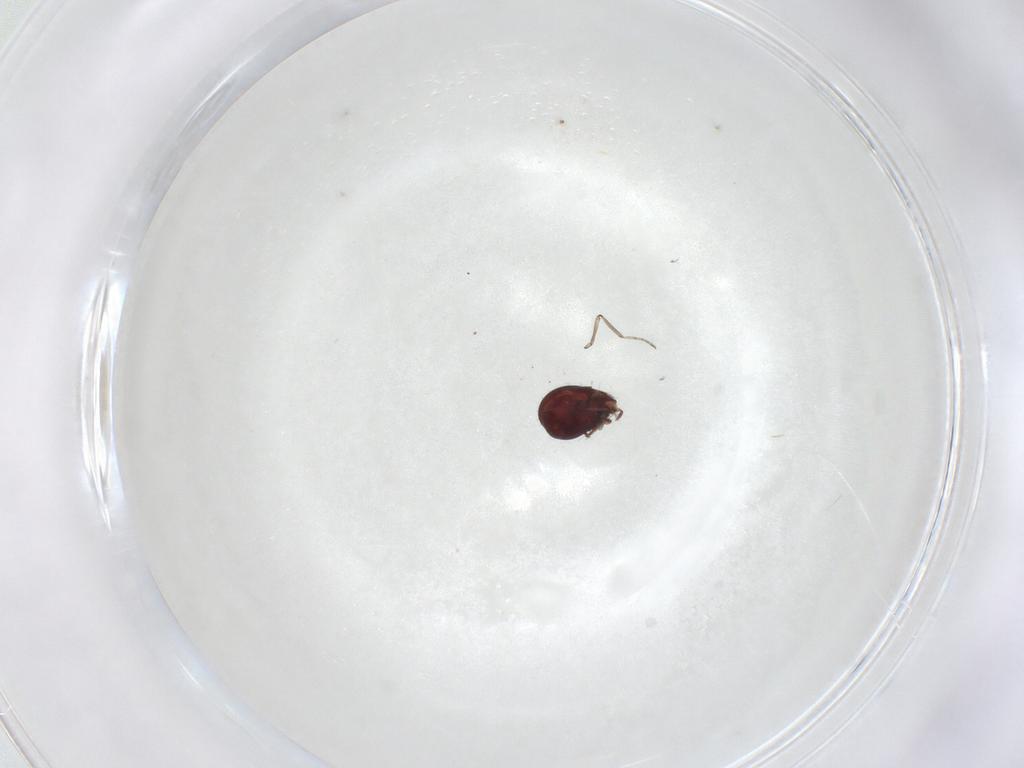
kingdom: Animalia
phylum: Arthropoda
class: Arachnida
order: Sarcoptiformes
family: Humerobatidae
